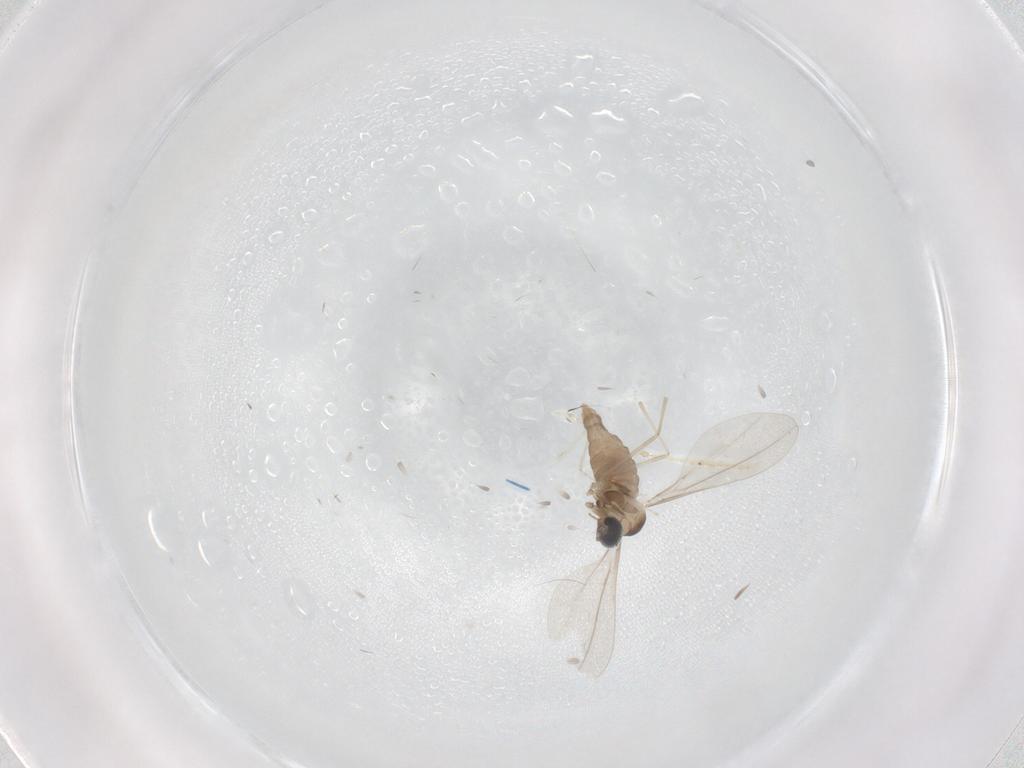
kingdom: Animalia
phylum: Arthropoda
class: Insecta
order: Diptera
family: Cecidomyiidae
